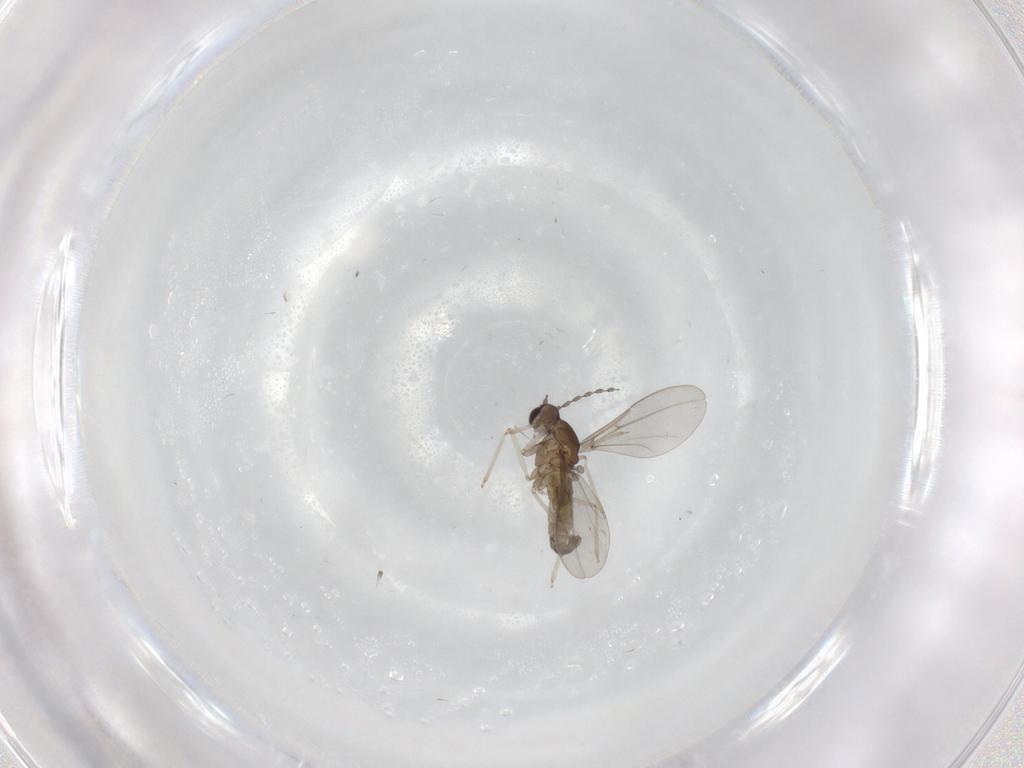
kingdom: Animalia
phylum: Arthropoda
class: Insecta
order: Diptera
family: Cecidomyiidae
